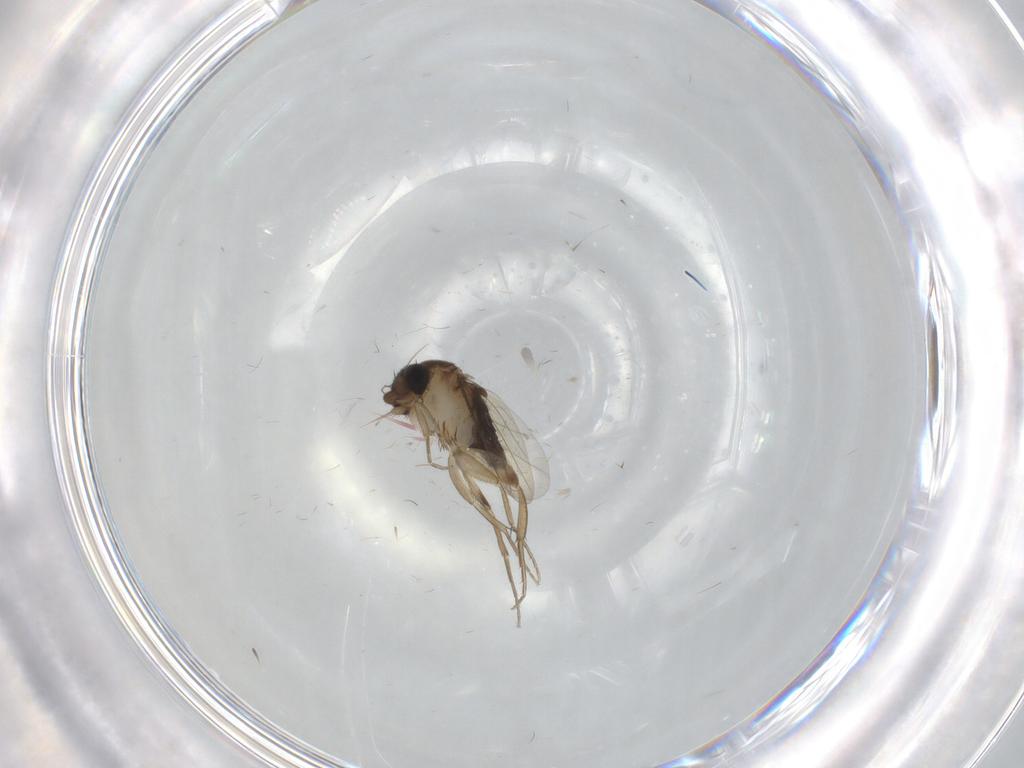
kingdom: Animalia
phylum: Arthropoda
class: Insecta
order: Diptera
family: Phoridae
